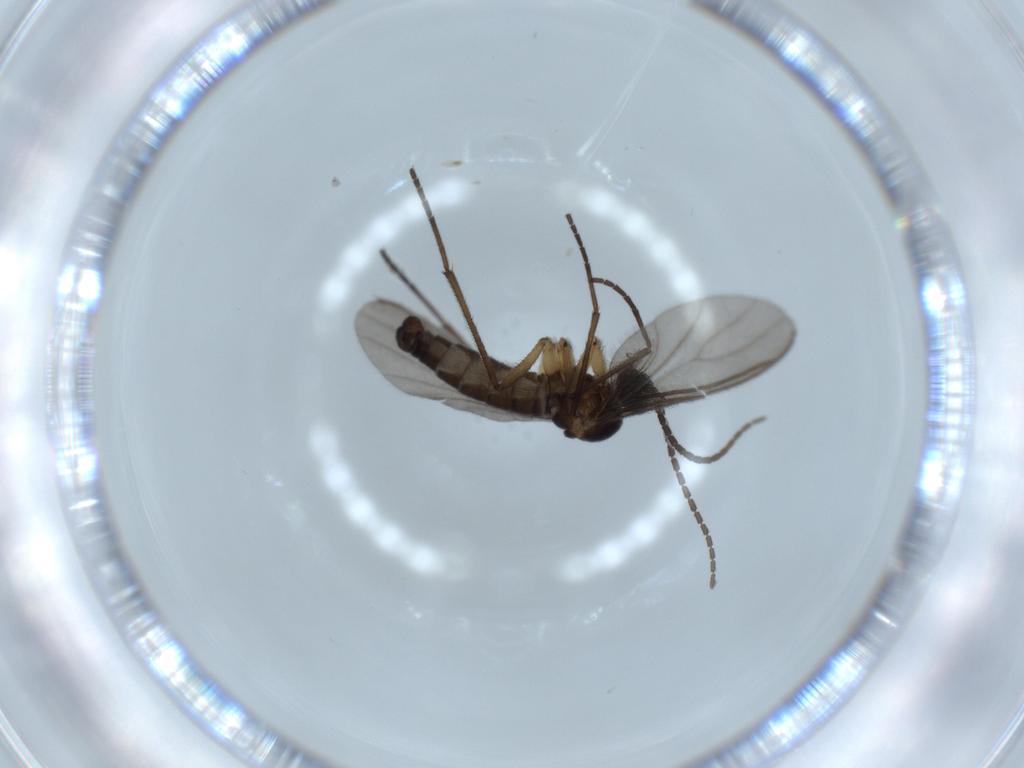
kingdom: Animalia
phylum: Arthropoda
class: Insecta
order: Diptera
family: Sciaridae
